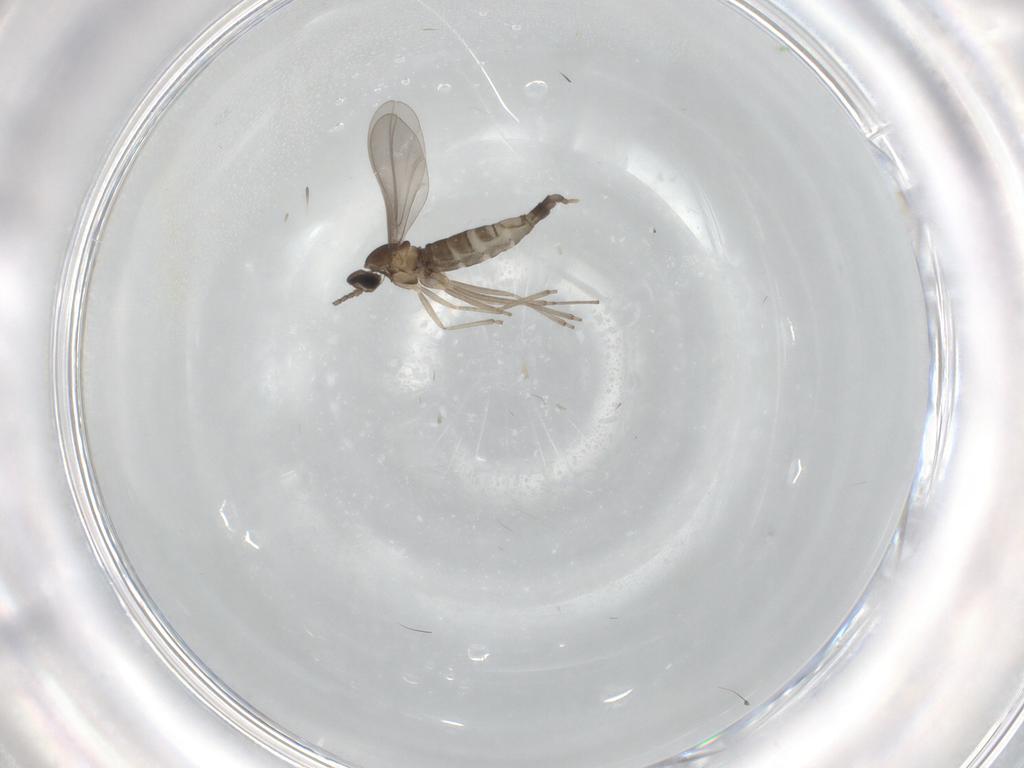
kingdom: Animalia
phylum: Arthropoda
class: Insecta
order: Diptera
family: Cecidomyiidae
